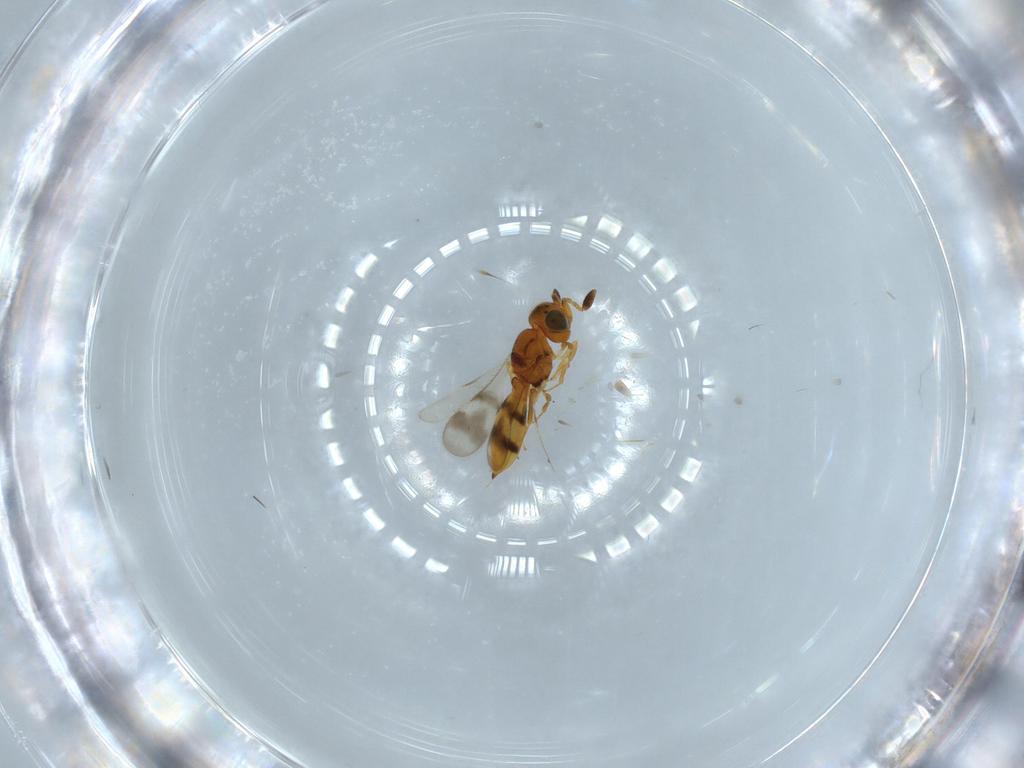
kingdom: Animalia
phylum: Arthropoda
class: Insecta
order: Hymenoptera
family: Scelionidae
